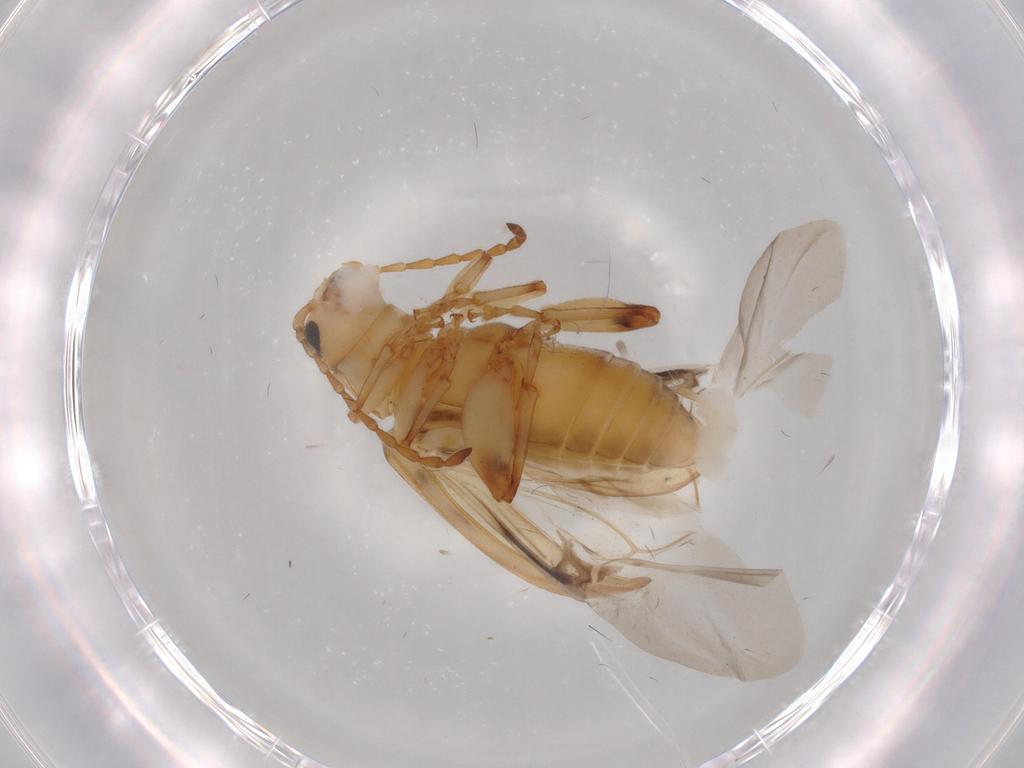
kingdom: Animalia
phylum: Arthropoda
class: Insecta
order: Coleoptera
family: Chrysomelidae
